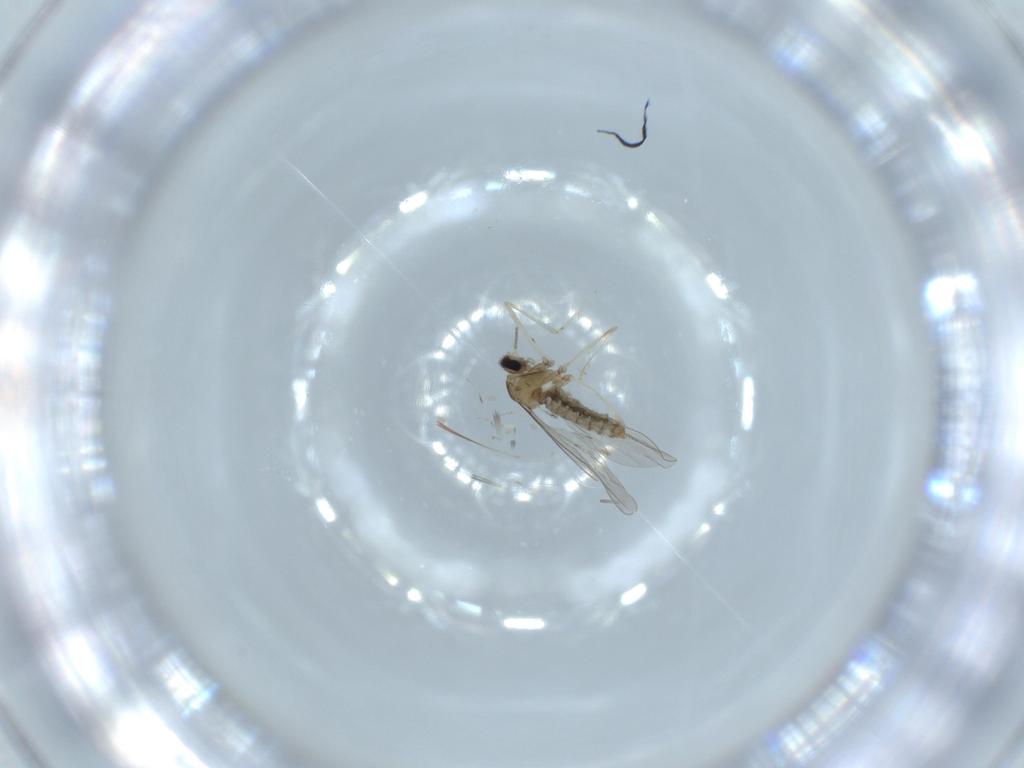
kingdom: Animalia
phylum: Arthropoda
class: Insecta
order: Diptera
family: Cecidomyiidae
